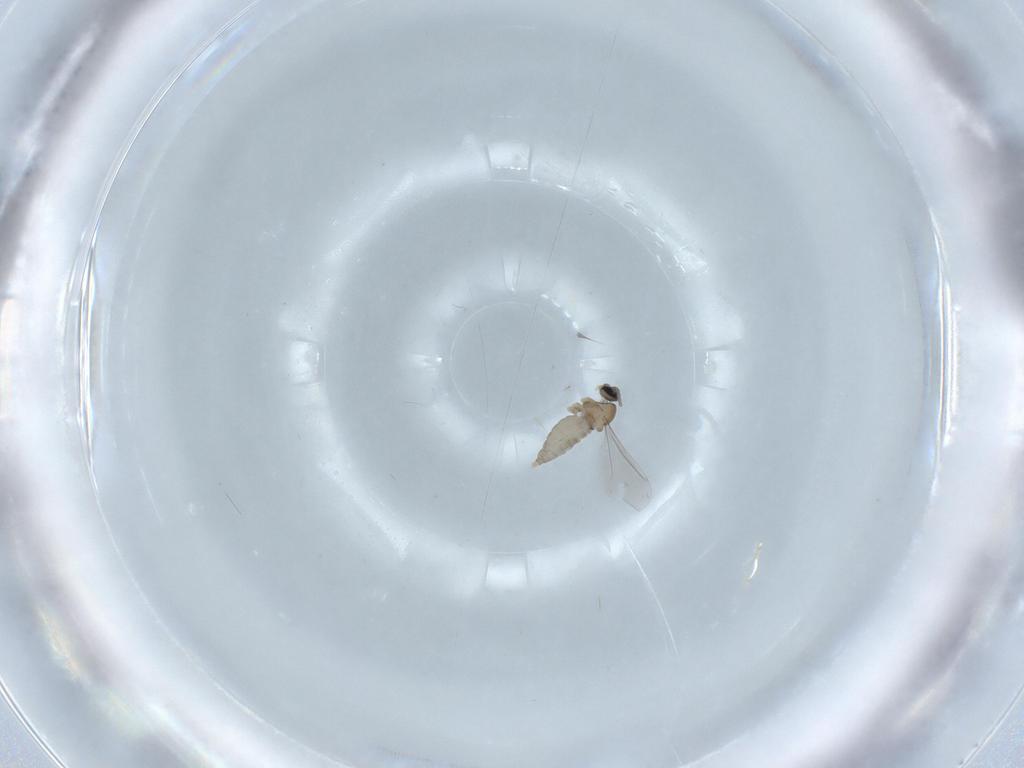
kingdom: Animalia
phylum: Arthropoda
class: Insecta
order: Diptera
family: Cecidomyiidae
